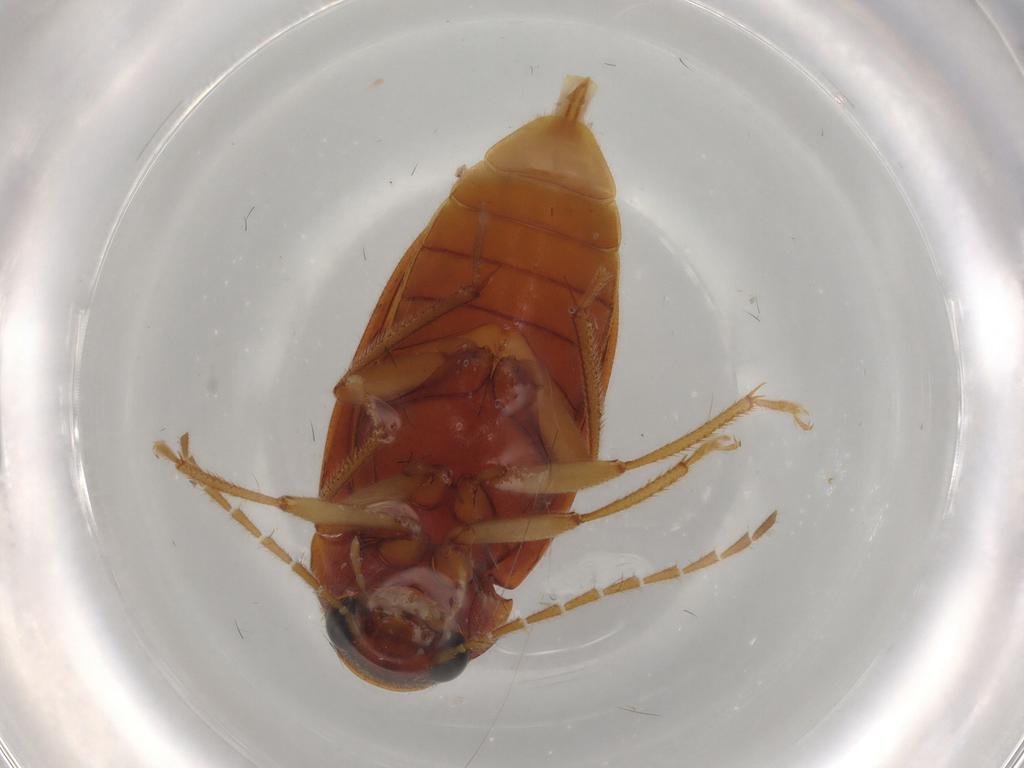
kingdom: Animalia
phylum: Arthropoda
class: Insecta
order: Coleoptera
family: Ptilodactylidae
